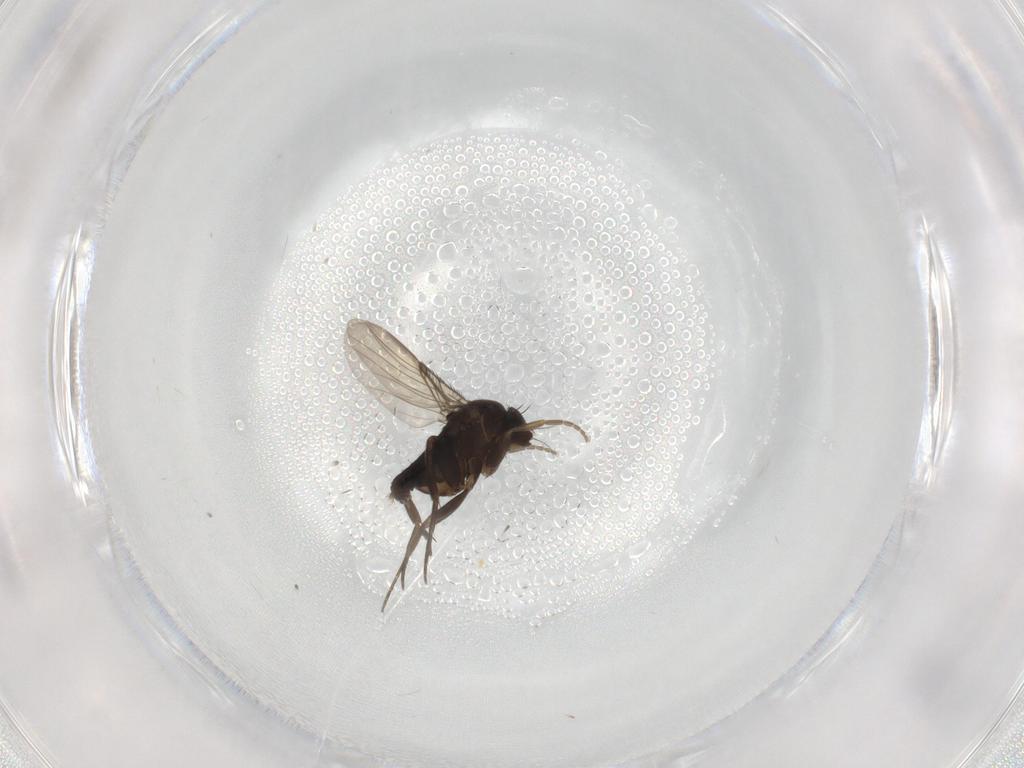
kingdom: Animalia
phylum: Arthropoda
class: Insecta
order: Diptera
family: Phoridae
